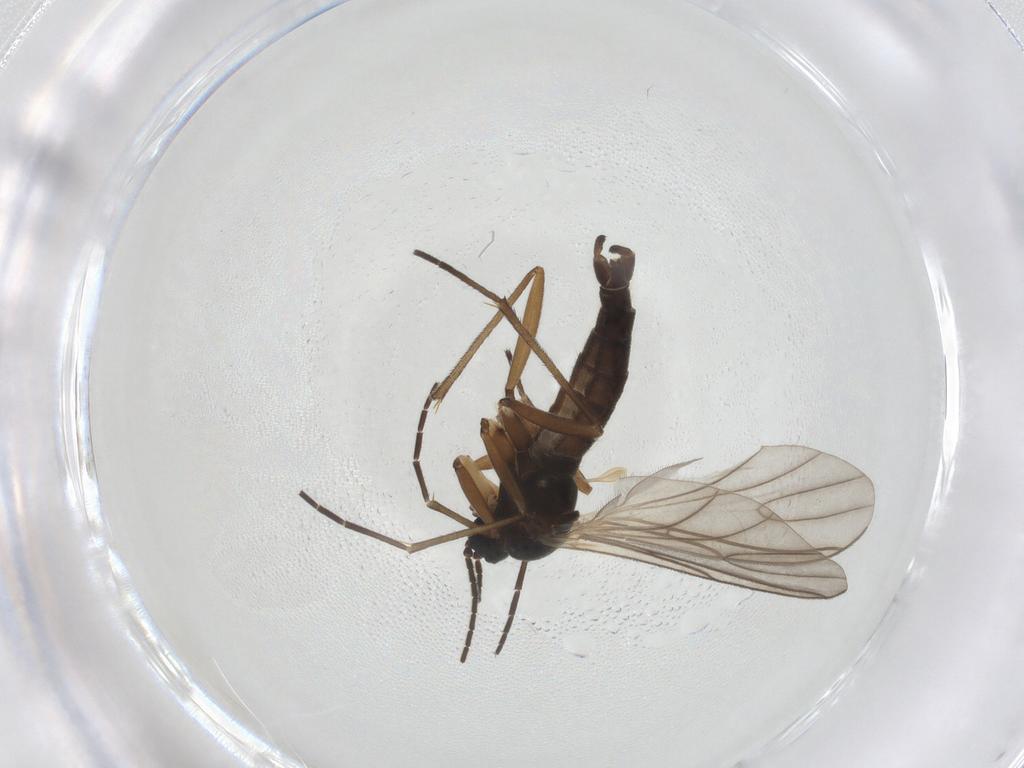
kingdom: Animalia
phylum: Arthropoda
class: Insecta
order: Diptera
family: Sciaridae
